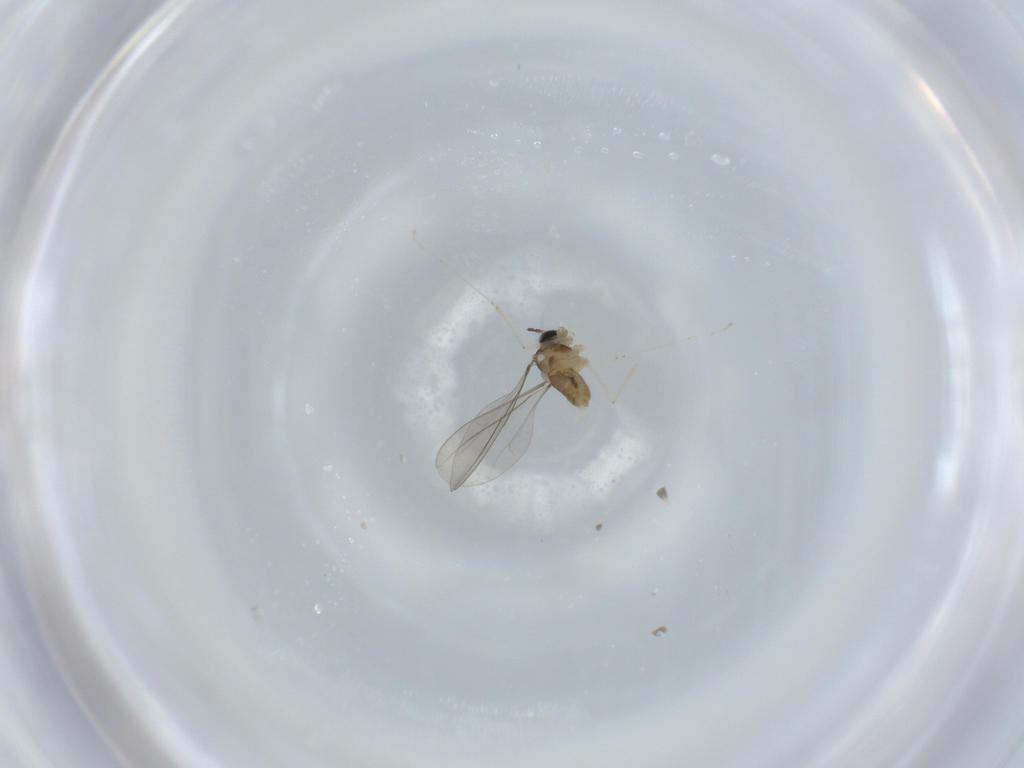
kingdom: Animalia
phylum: Arthropoda
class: Insecta
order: Diptera
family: Cecidomyiidae
